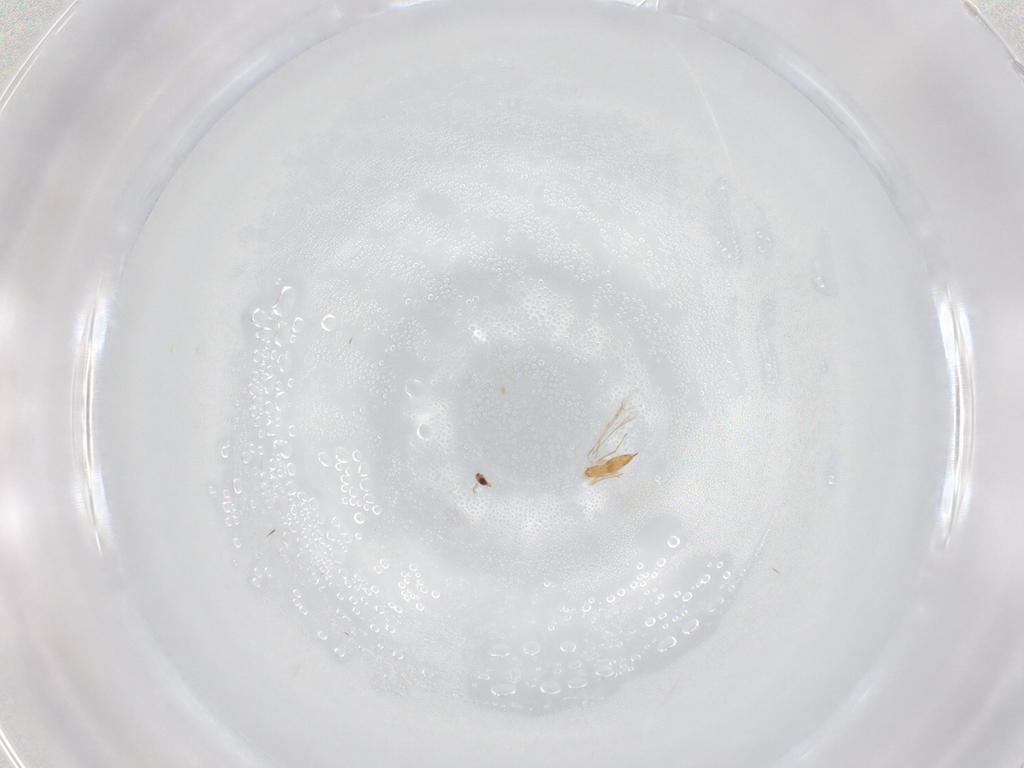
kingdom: Animalia
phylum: Arthropoda
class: Insecta
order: Hymenoptera
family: Mymaridae
